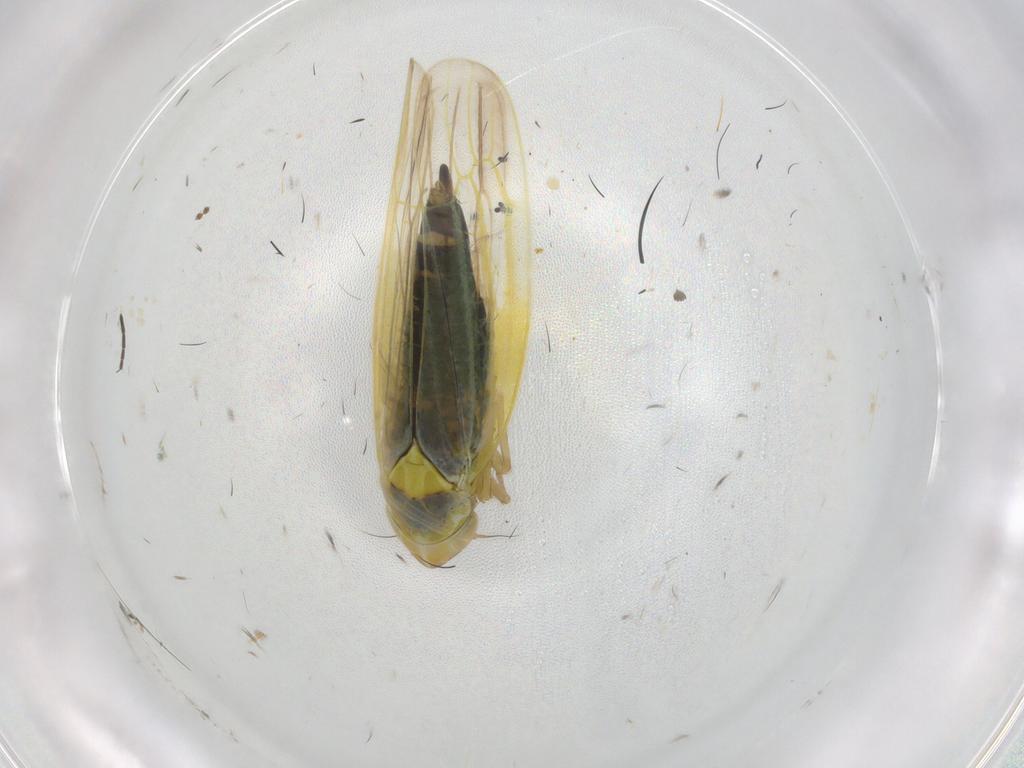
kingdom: Animalia
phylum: Arthropoda
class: Insecta
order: Hemiptera
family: Cicadellidae
